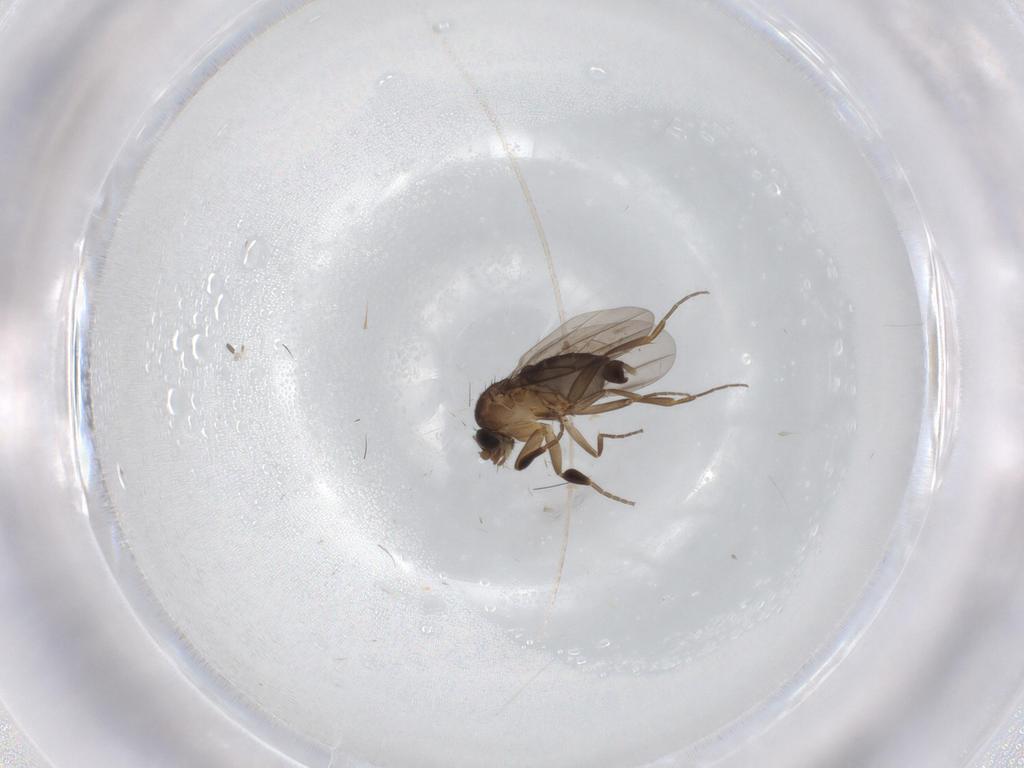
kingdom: Animalia
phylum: Arthropoda
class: Insecta
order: Diptera
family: Phoridae
